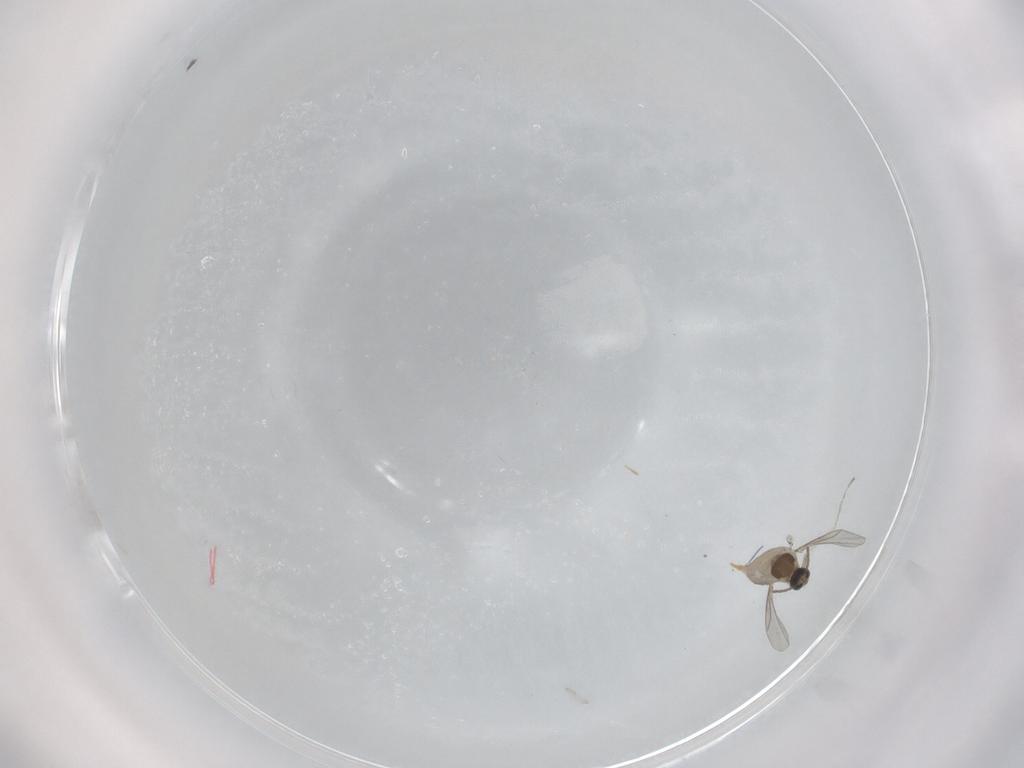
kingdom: Animalia
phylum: Arthropoda
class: Insecta
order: Diptera
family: Cecidomyiidae
